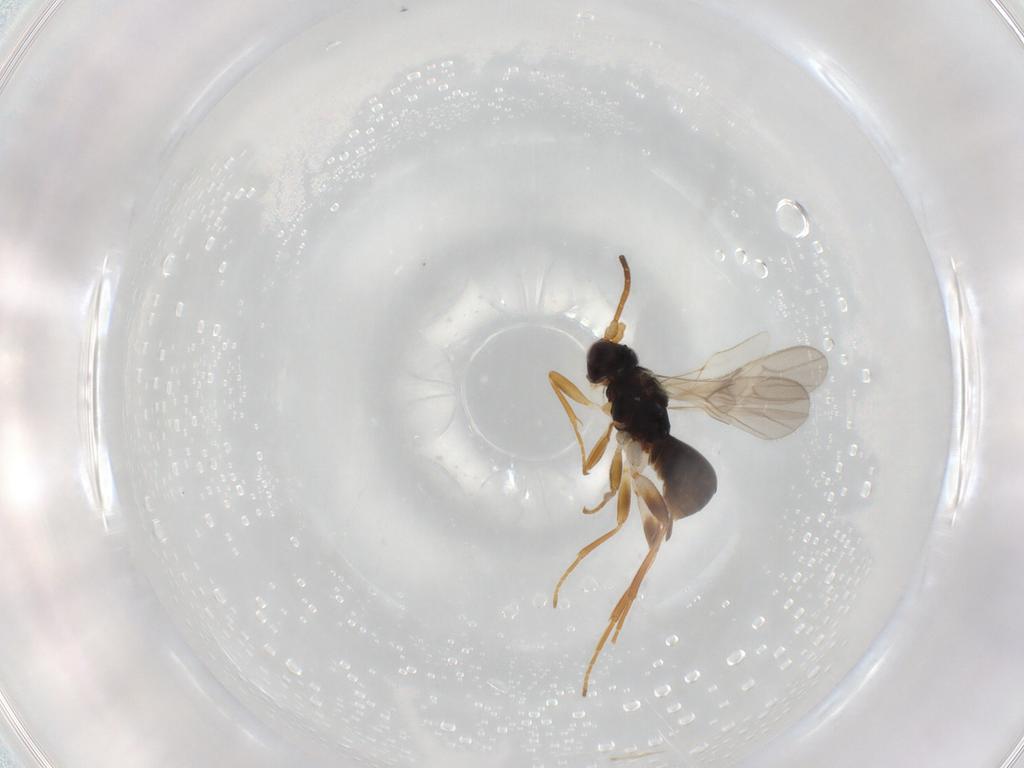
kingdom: Animalia
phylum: Arthropoda
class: Insecta
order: Hymenoptera
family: Braconidae
